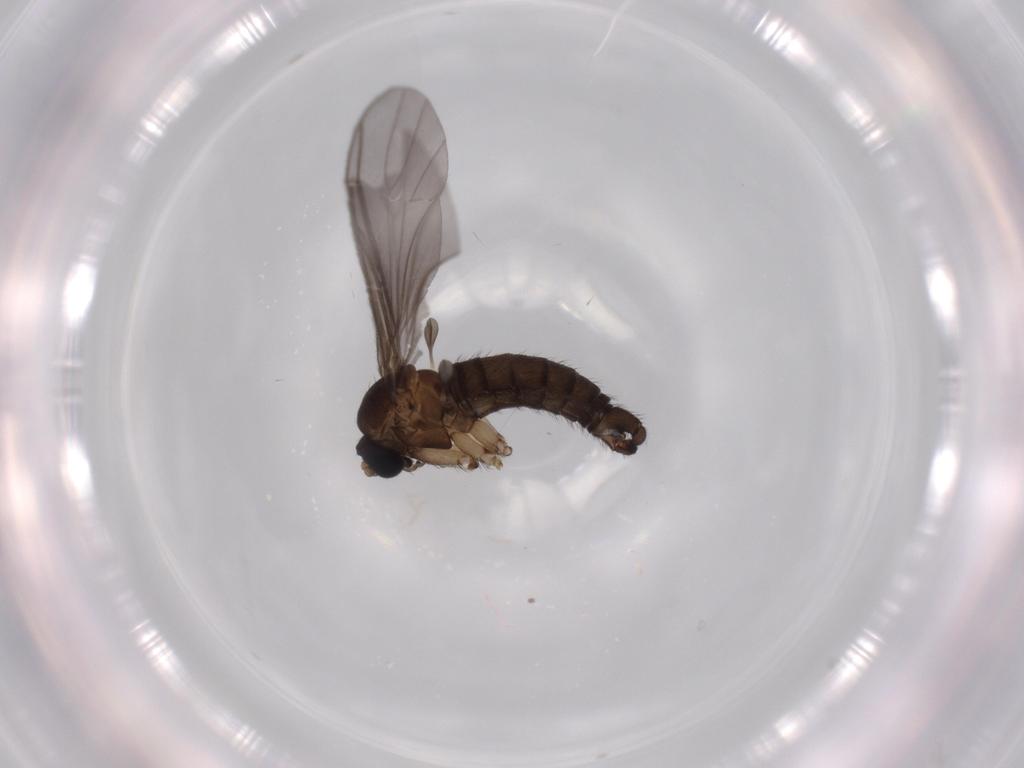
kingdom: Animalia
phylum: Arthropoda
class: Insecta
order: Diptera
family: Sciaridae
